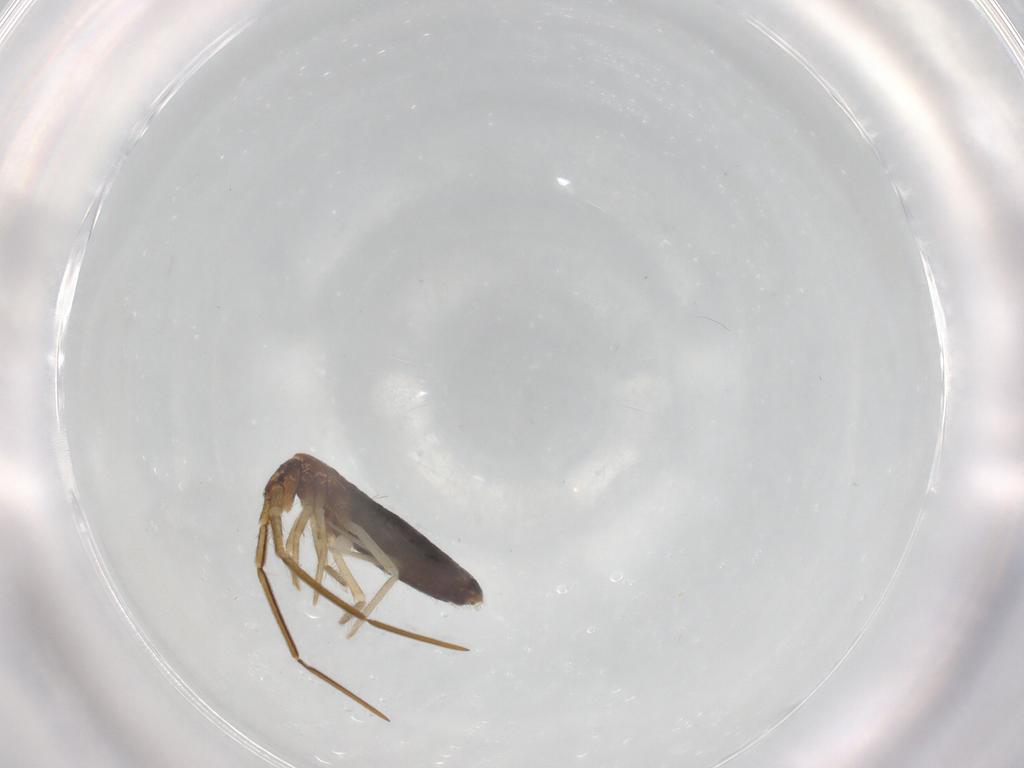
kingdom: Animalia
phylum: Arthropoda
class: Collembola
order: Entomobryomorpha
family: Entomobryidae
